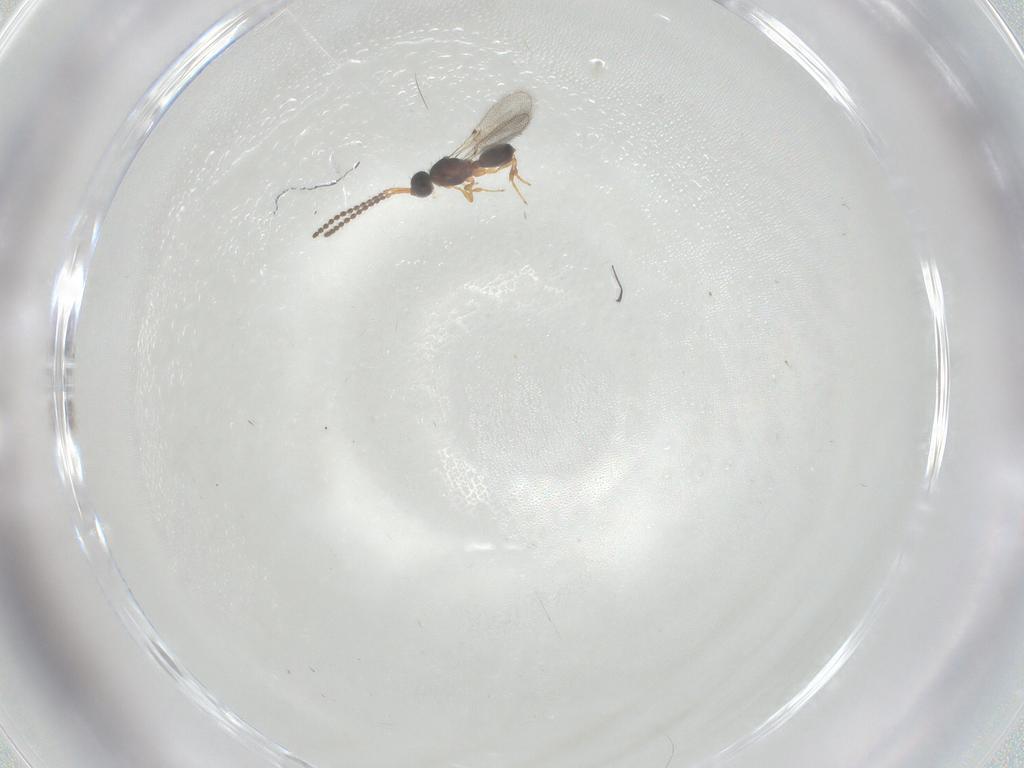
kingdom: Animalia
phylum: Arthropoda
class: Insecta
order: Hymenoptera
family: Diapriidae
